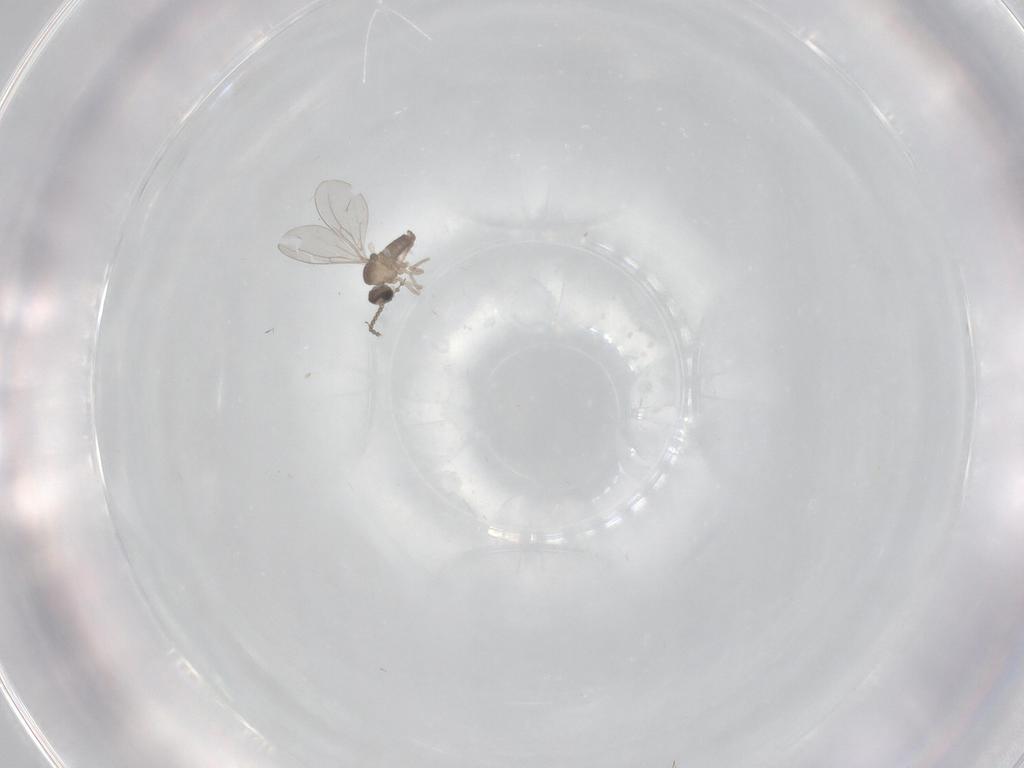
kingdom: Animalia
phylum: Arthropoda
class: Insecta
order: Diptera
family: Cecidomyiidae
